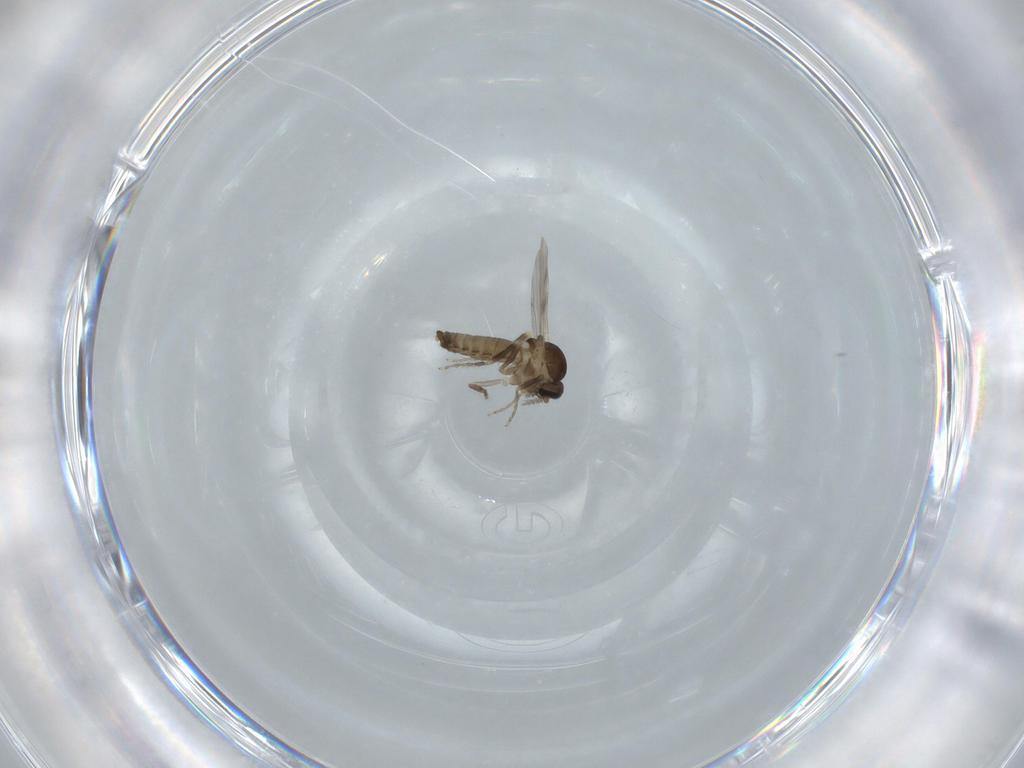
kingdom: Animalia
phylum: Arthropoda
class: Insecta
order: Diptera
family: Ceratopogonidae
